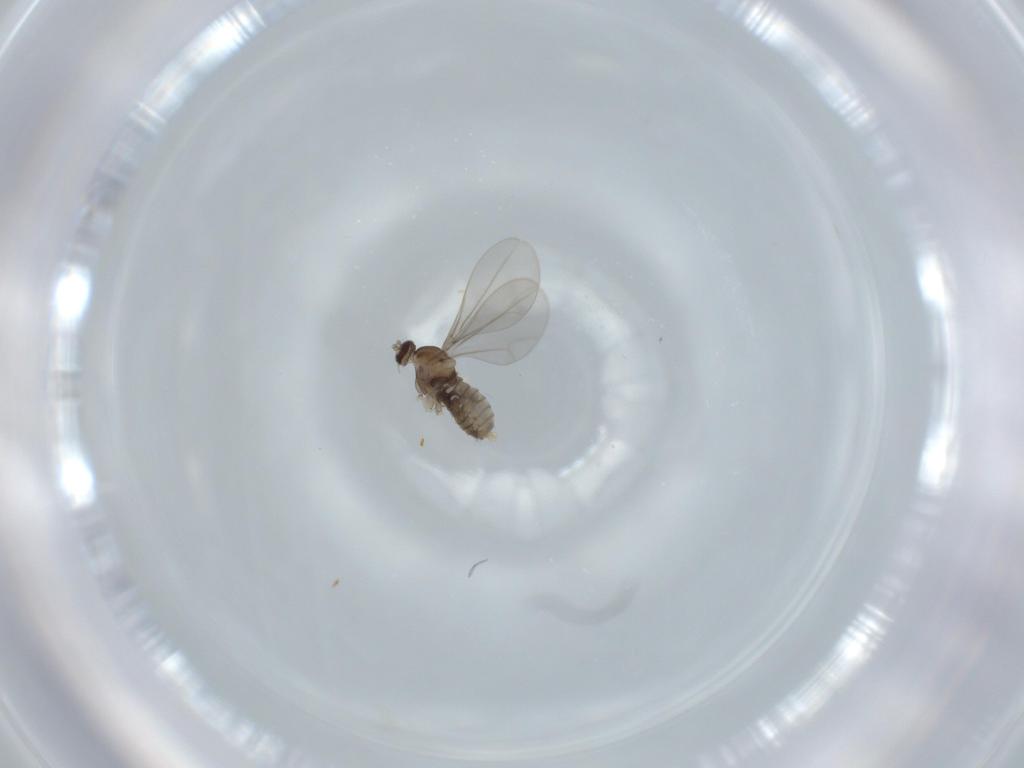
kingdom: Animalia
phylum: Arthropoda
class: Insecta
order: Diptera
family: Cecidomyiidae
